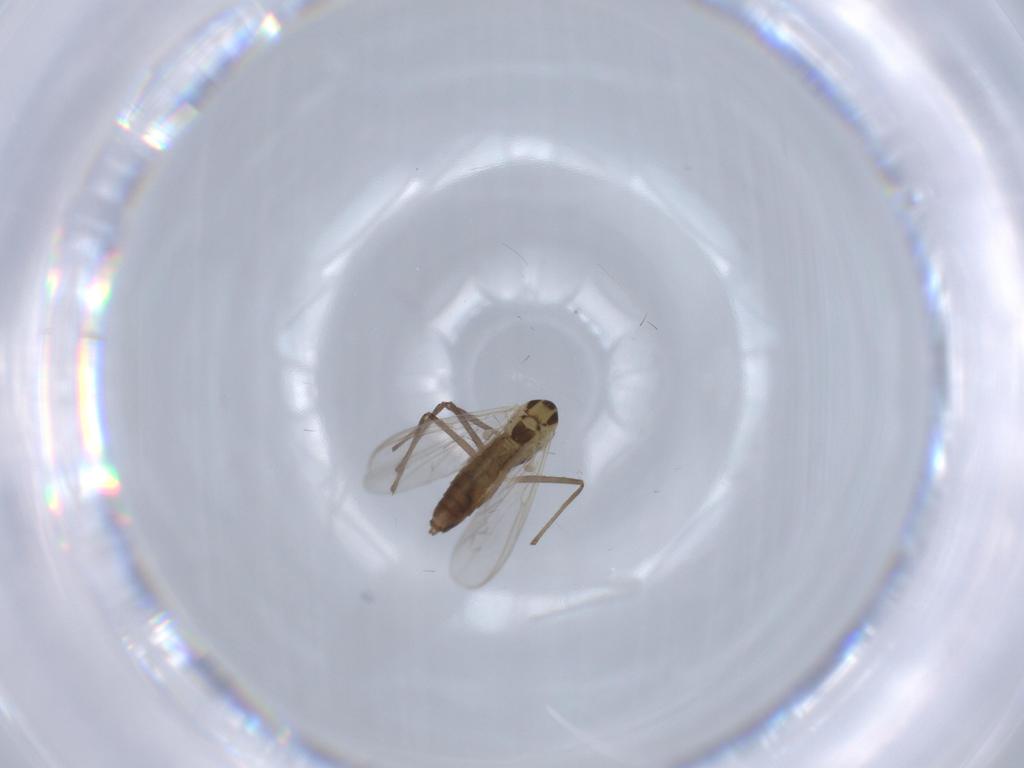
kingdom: Animalia
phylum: Arthropoda
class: Insecta
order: Diptera
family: Chironomidae
